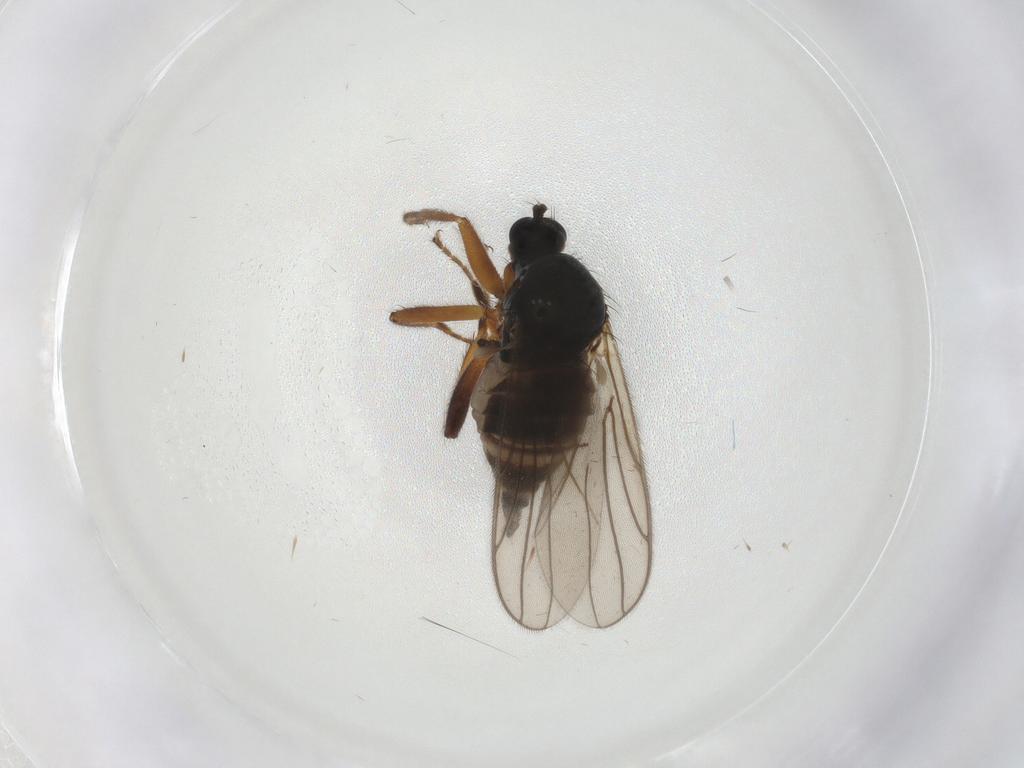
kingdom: Animalia
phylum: Arthropoda
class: Insecta
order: Diptera
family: Hybotidae
